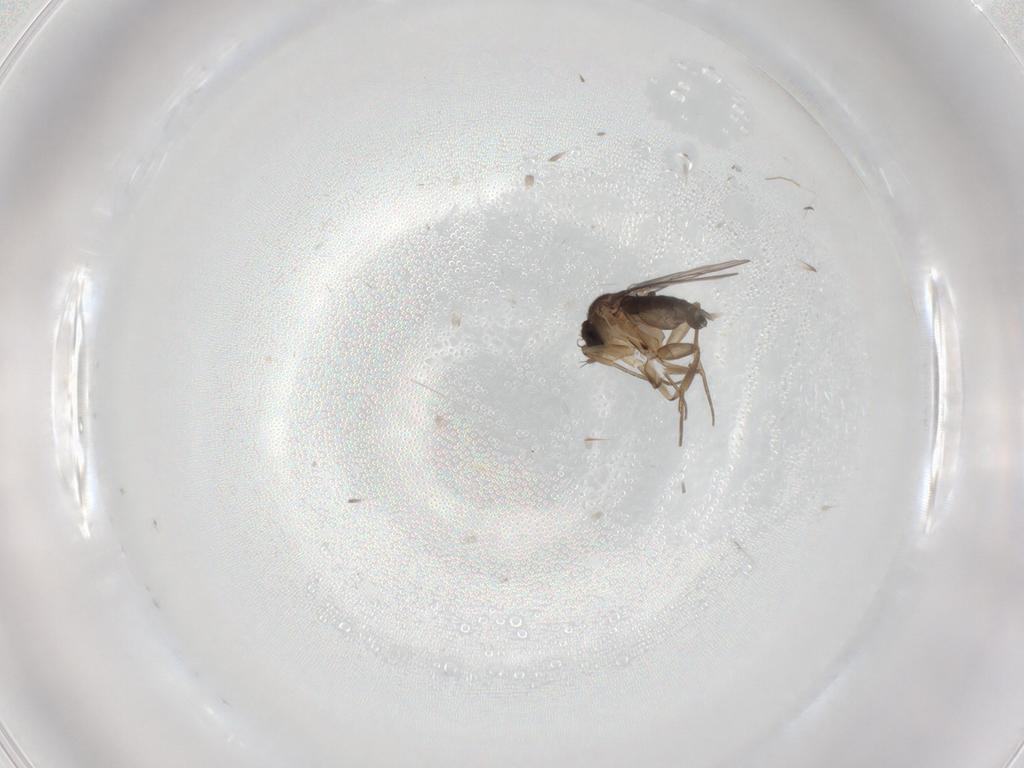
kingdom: Animalia
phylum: Arthropoda
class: Insecta
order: Diptera
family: Phoridae
